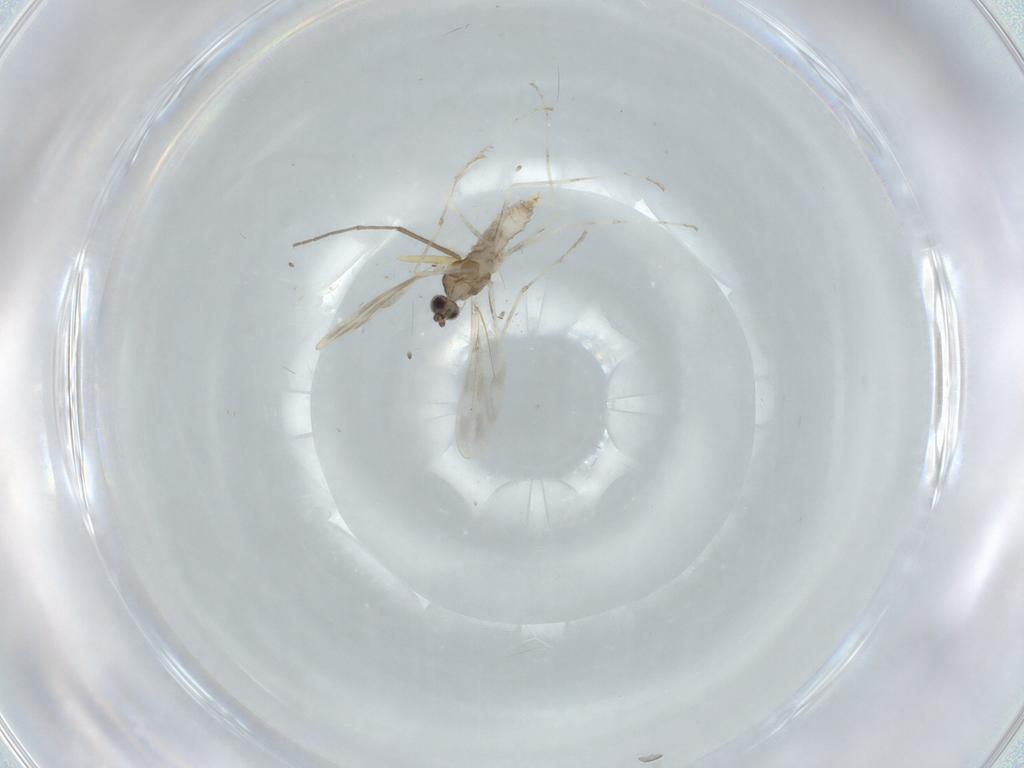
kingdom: Animalia
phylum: Arthropoda
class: Insecta
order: Diptera
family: Cecidomyiidae
